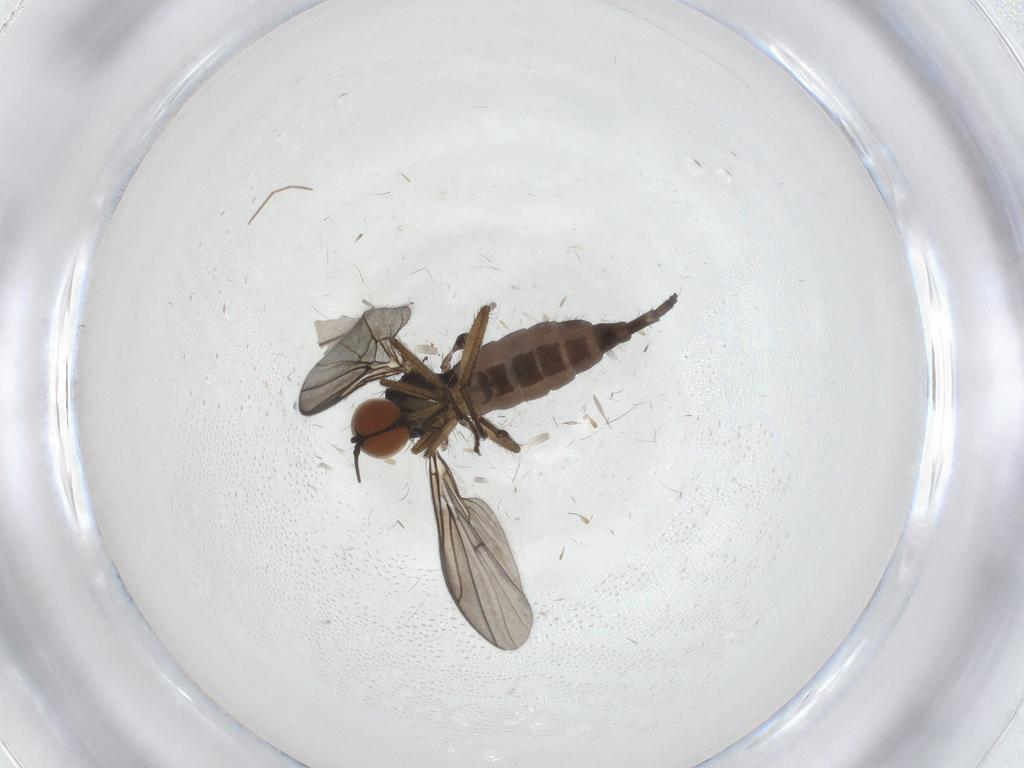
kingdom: Animalia
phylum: Arthropoda
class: Insecta
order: Diptera
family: Empididae
